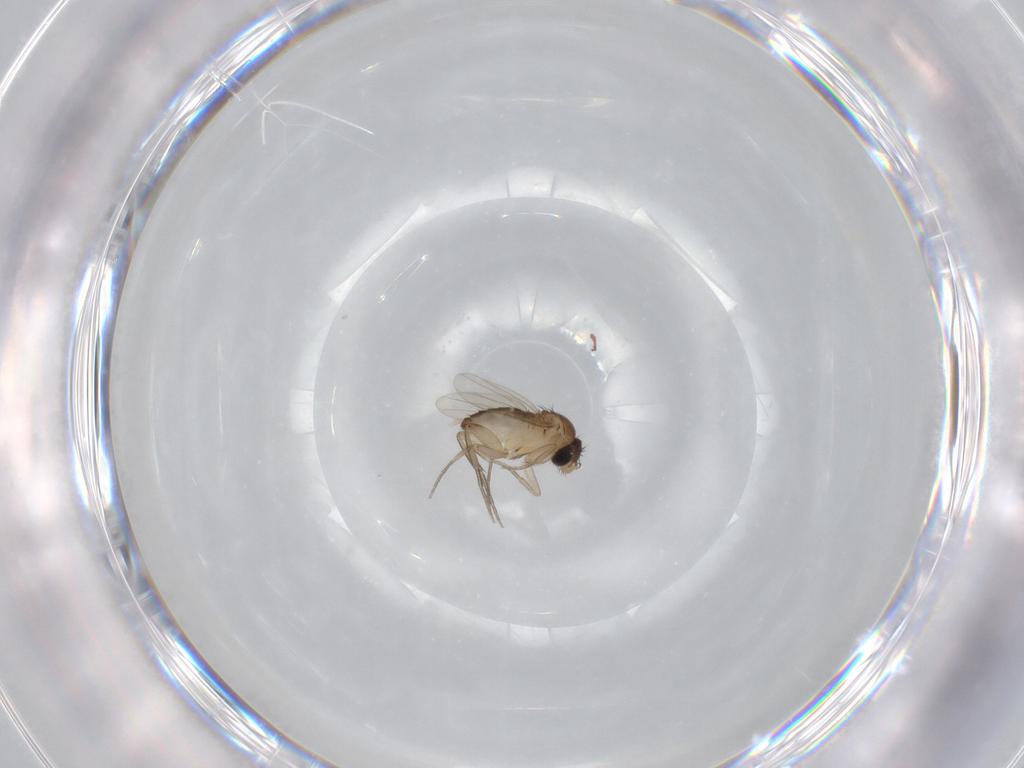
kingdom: Animalia
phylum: Arthropoda
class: Insecta
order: Diptera
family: Phoridae
